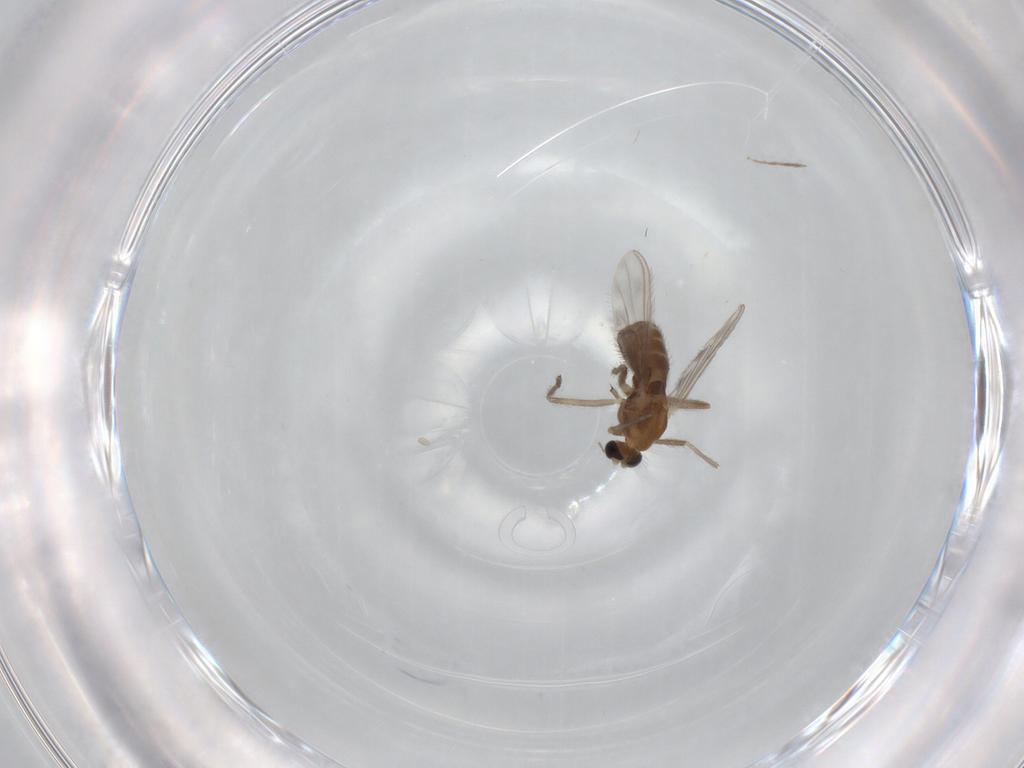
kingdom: Animalia
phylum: Arthropoda
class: Insecta
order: Diptera
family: Chironomidae
